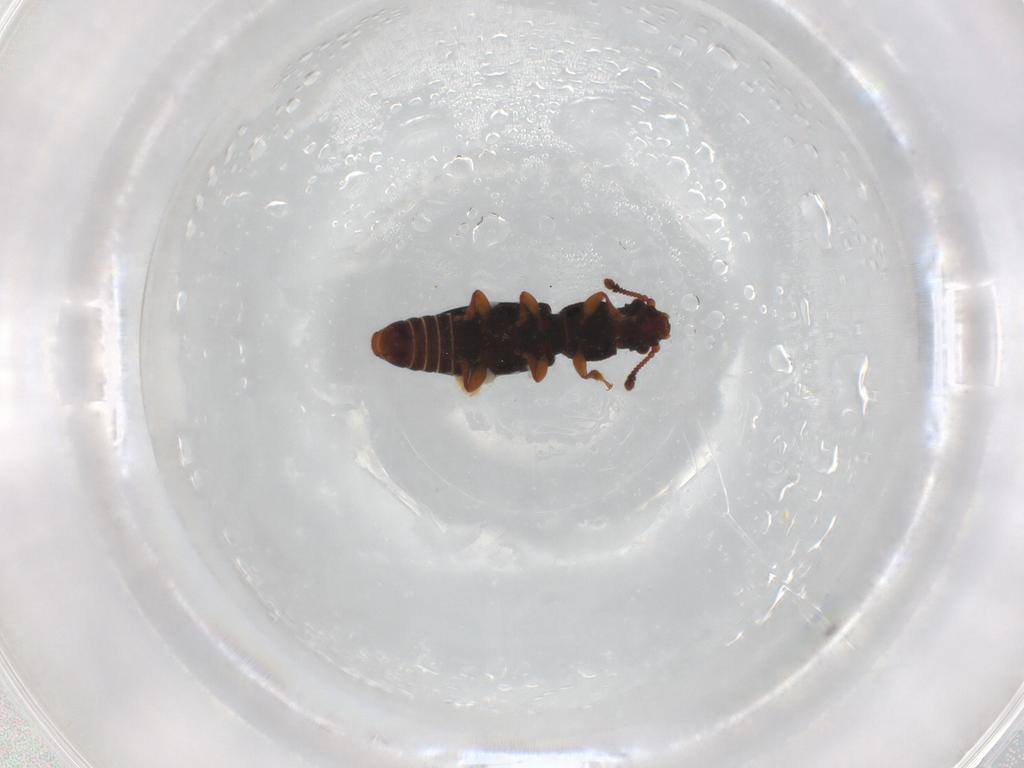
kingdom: Animalia
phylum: Arthropoda
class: Insecta
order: Coleoptera
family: Monotomidae
